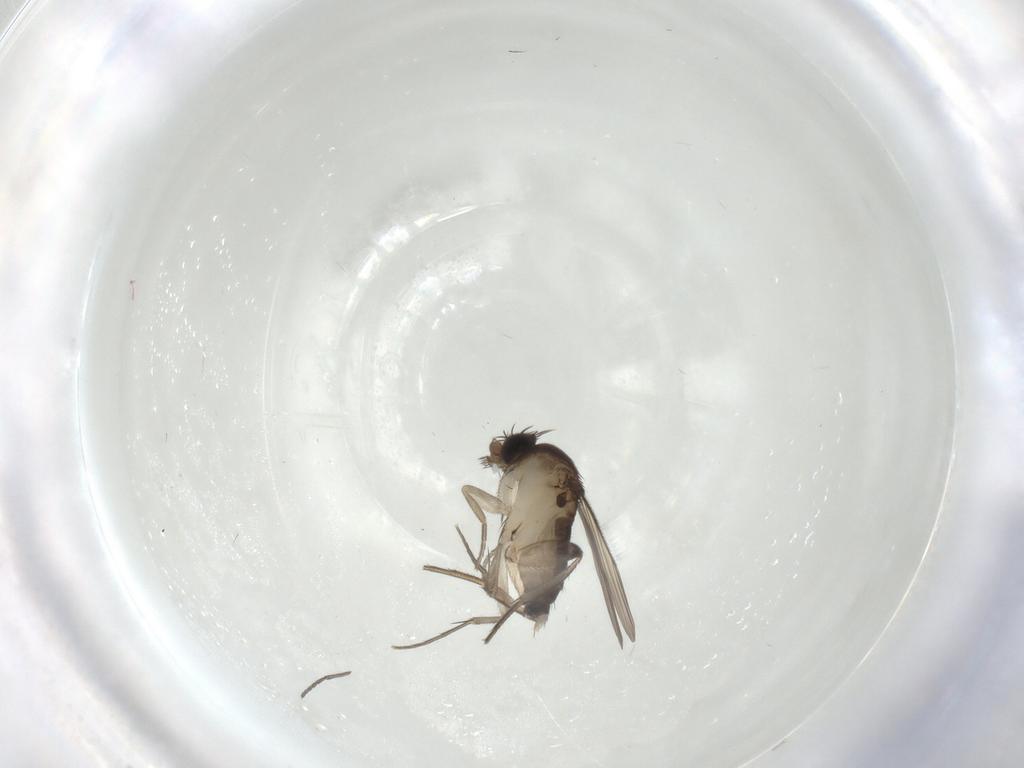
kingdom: Animalia
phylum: Arthropoda
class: Insecta
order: Diptera
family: Phoridae
